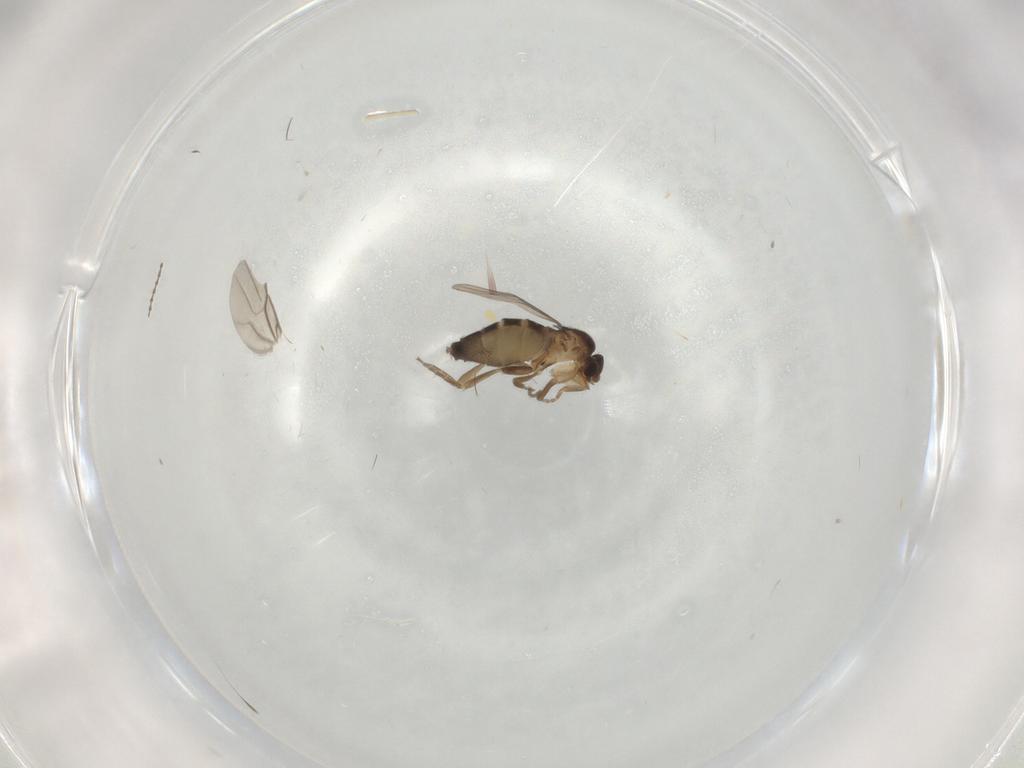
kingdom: Animalia
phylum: Arthropoda
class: Insecta
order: Diptera
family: Phoridae
